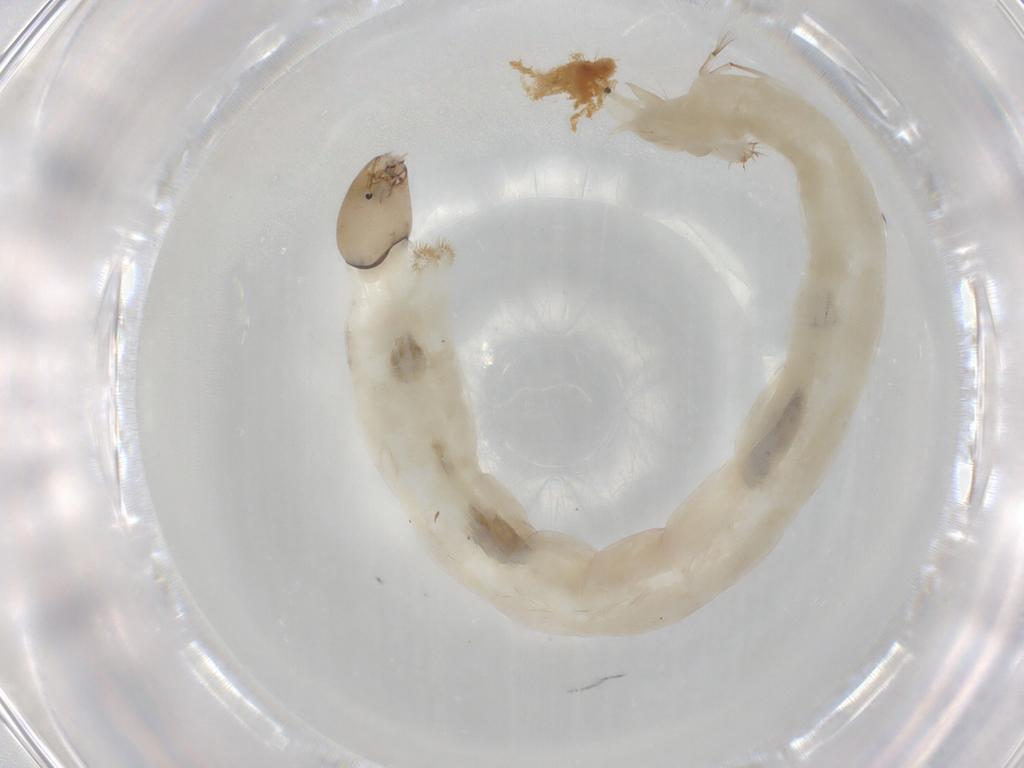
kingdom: Animalia
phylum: Arthropoda
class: Insecta
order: Diptera
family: Chironomidae
